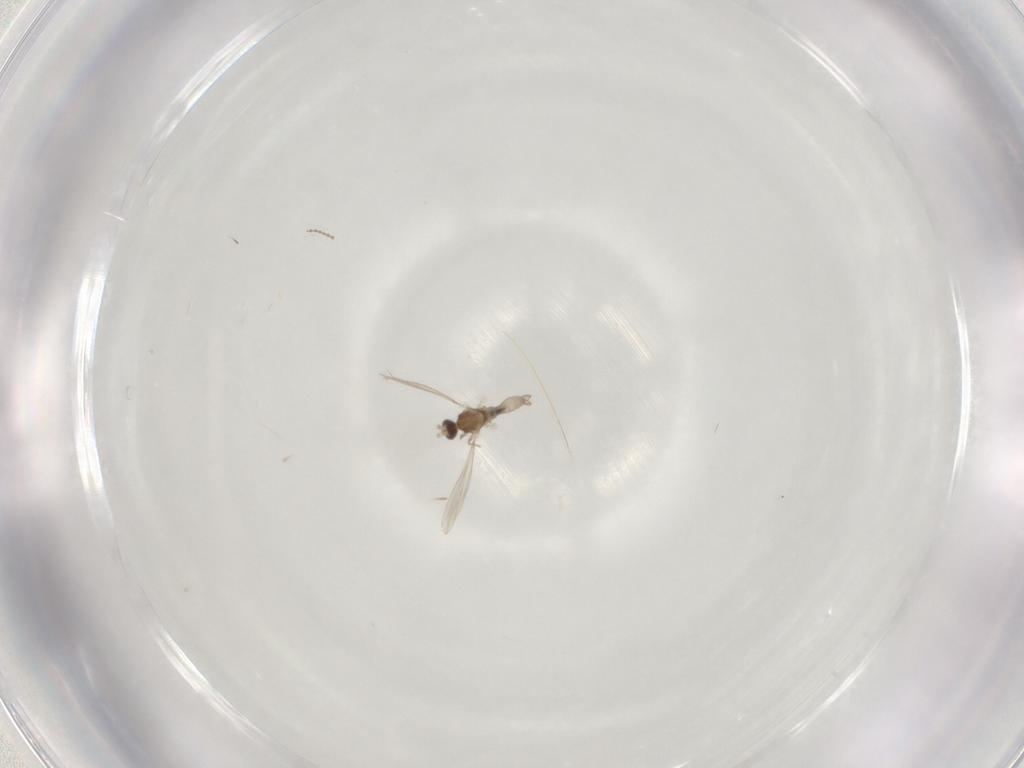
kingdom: Animalia
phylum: Arthropoda
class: Insecta
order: Diptera
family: Cecidomyiidae
